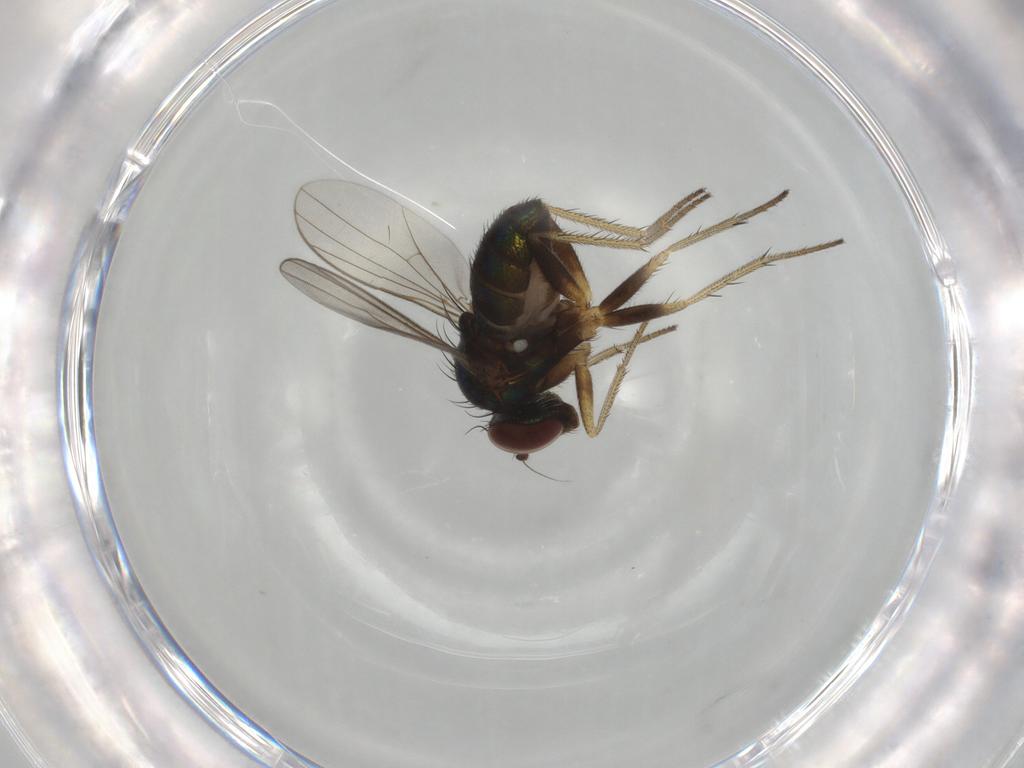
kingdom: Animalia
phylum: Arthropoda
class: Insecta
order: Diptera
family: Dolichopodidae
